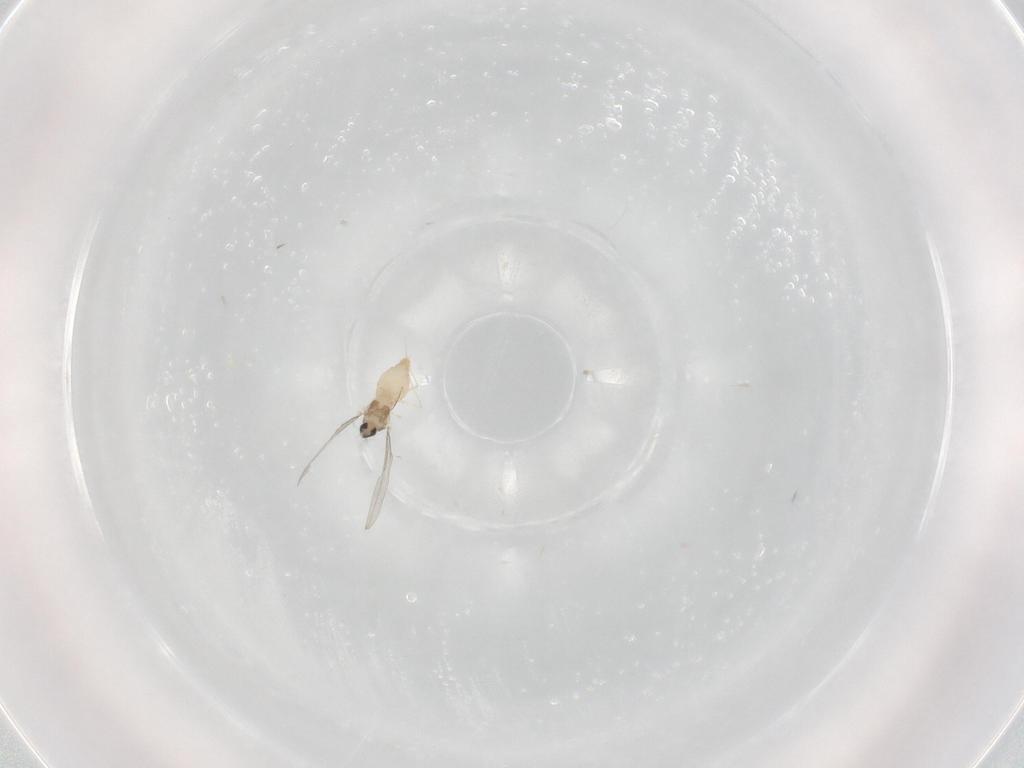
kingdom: Animalia
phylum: Arthropoda
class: Insecta
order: Diptera
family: Cecidomyiidae
